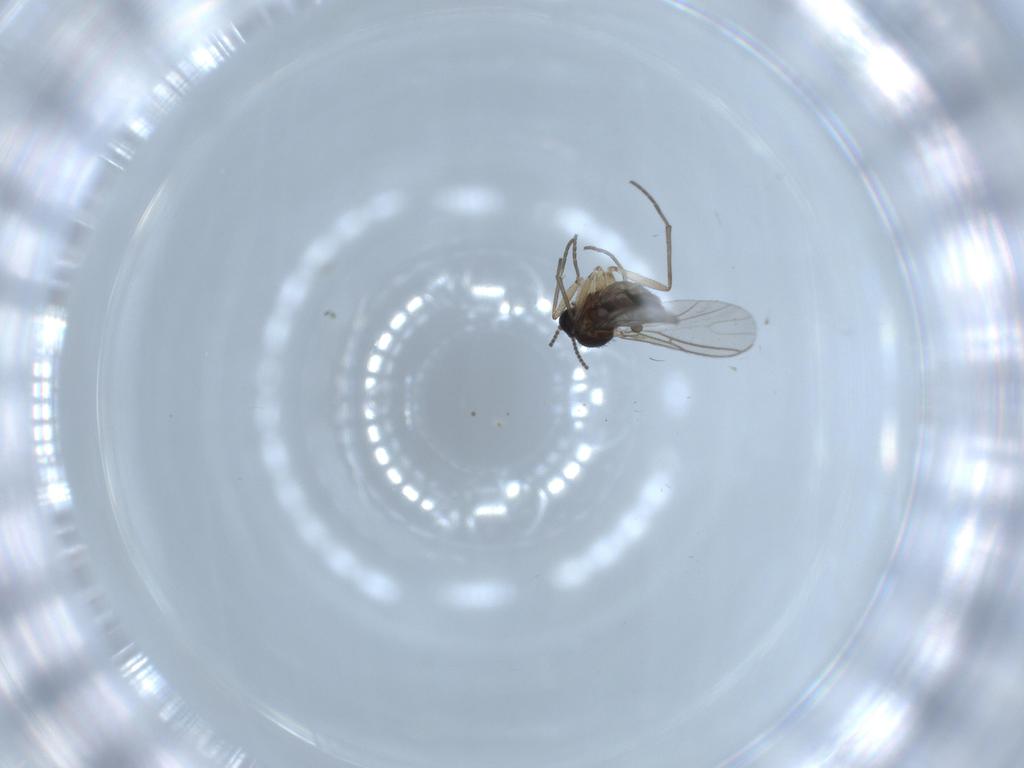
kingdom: Animalia
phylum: Arthropoda
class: Insecta
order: Diptera
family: Sciaridae
